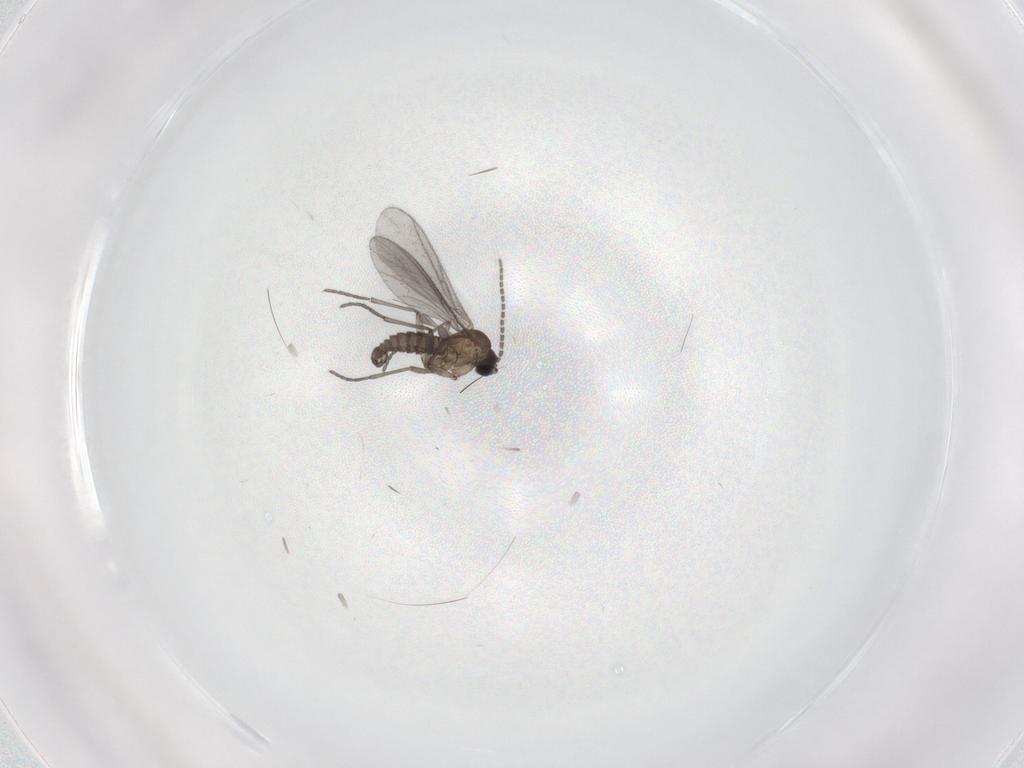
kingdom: Animalia
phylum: Arthropoda
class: Insecta
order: Diptera
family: Sciaridae
